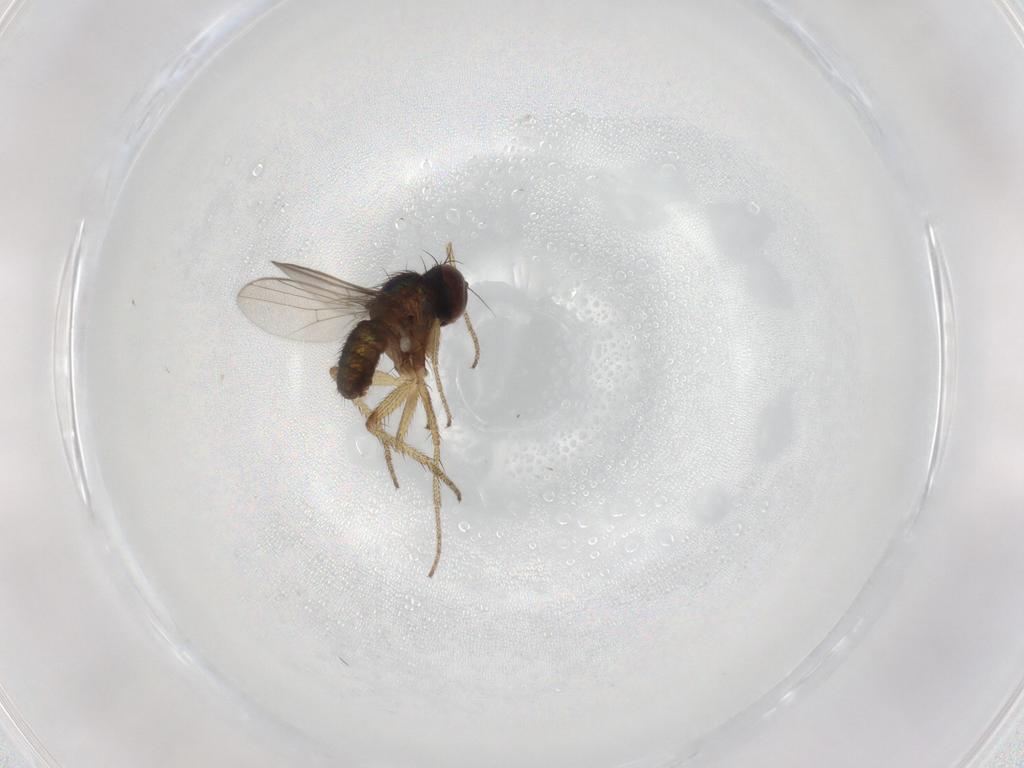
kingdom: Animalia
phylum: Arthropoda
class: Insecta
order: Diptera
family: Dolichopodidae
